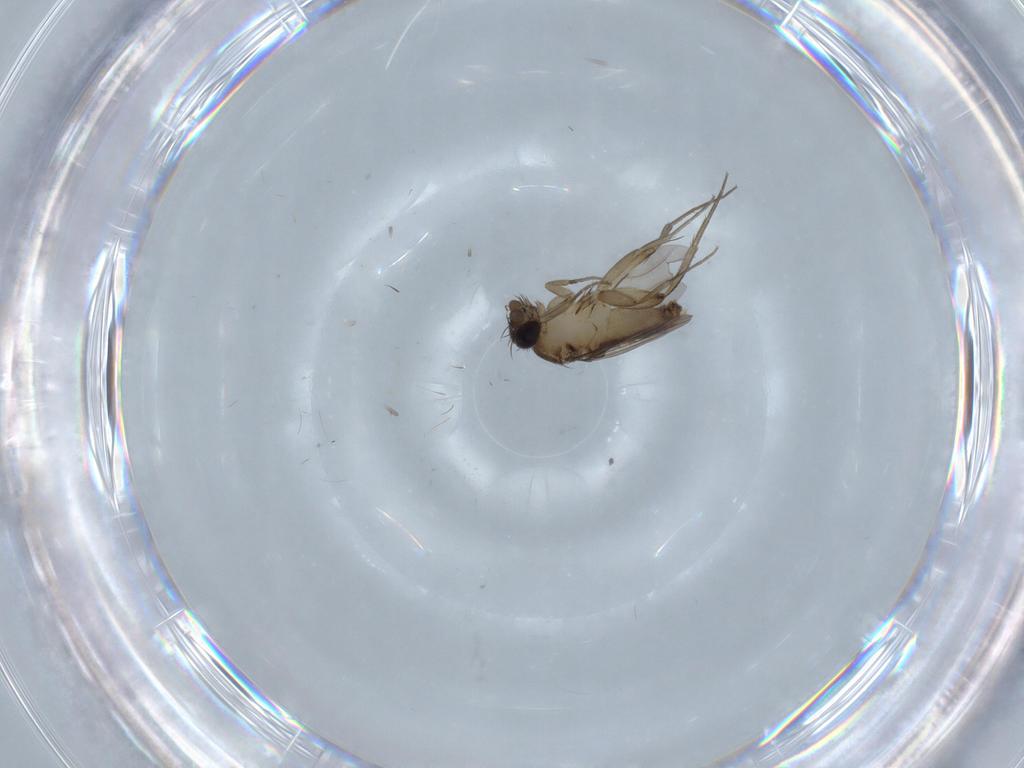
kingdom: Animalia
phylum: Arthropoda
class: Insecta
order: Diptera
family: Phoridae
